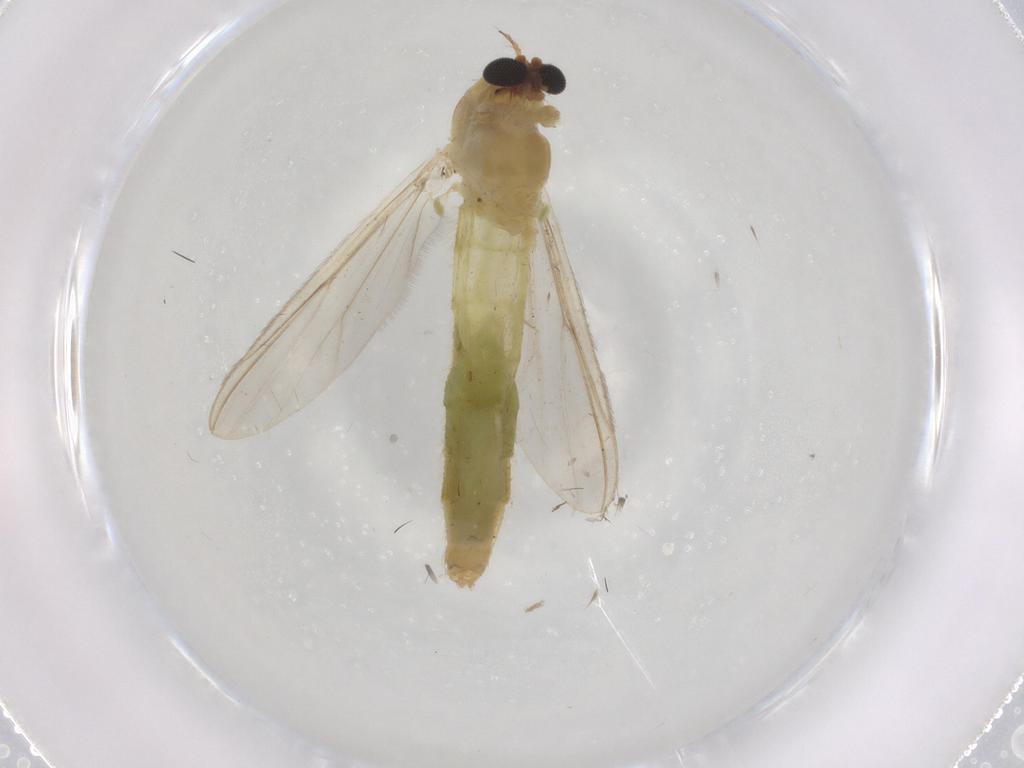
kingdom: Animalia
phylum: Arthropoda
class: Insecta
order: Diptera
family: Chironomidae
